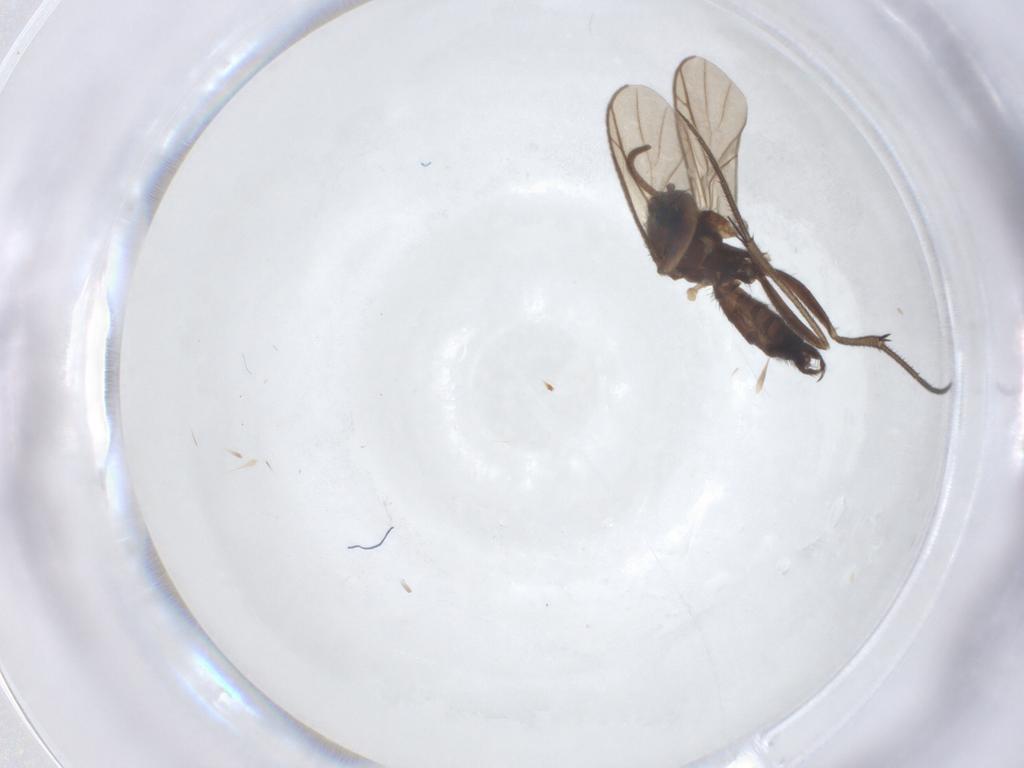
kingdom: Animalia
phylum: Arthropoda
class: Insecta
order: Diptera
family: Keroplatidae
